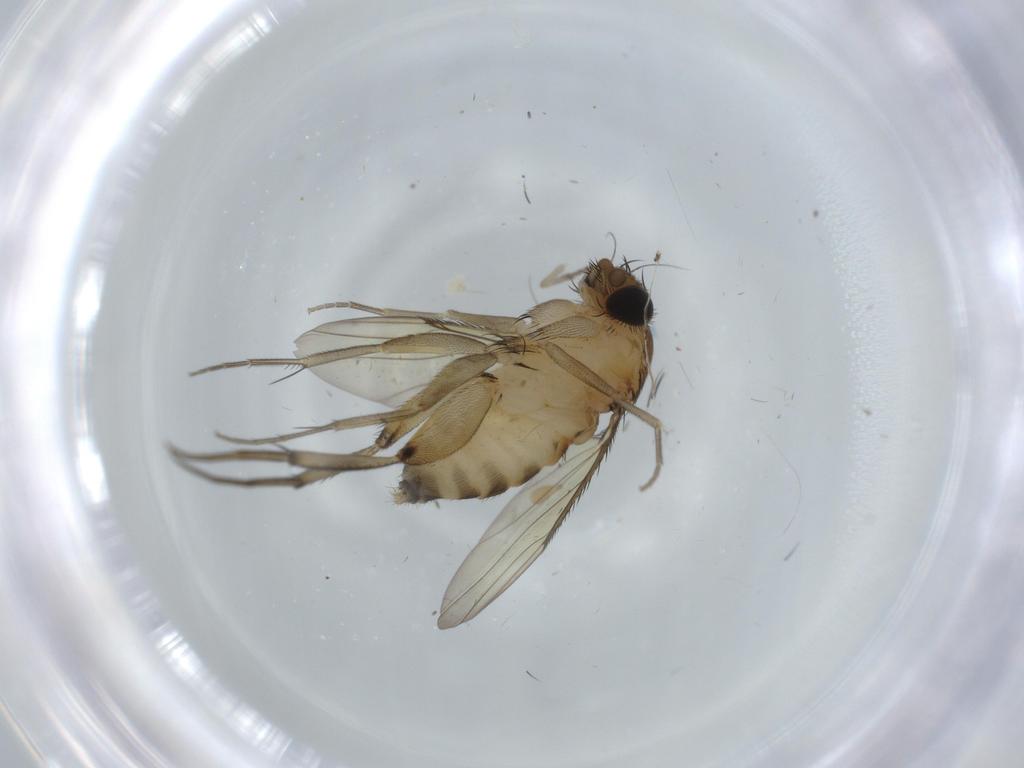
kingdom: Animalia
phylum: Arthropoda
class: Insecta
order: Diptera
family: Phoridae
